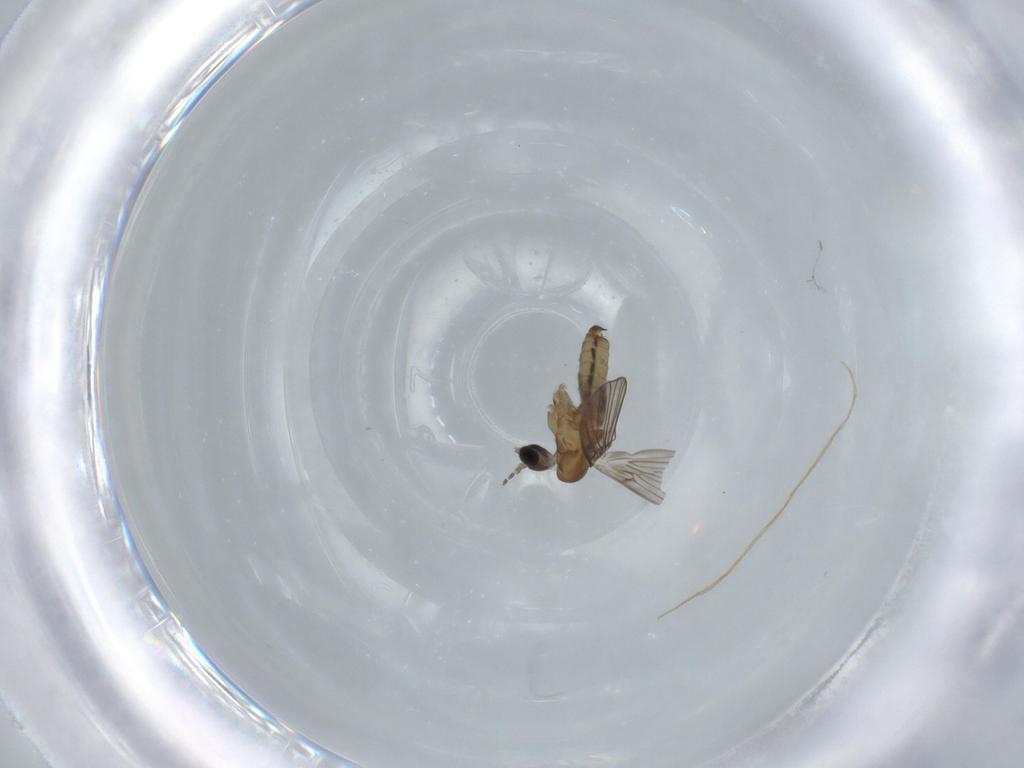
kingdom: Animalia
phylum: Arthropoda
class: Insecta
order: Diptera
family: Psychodidae
